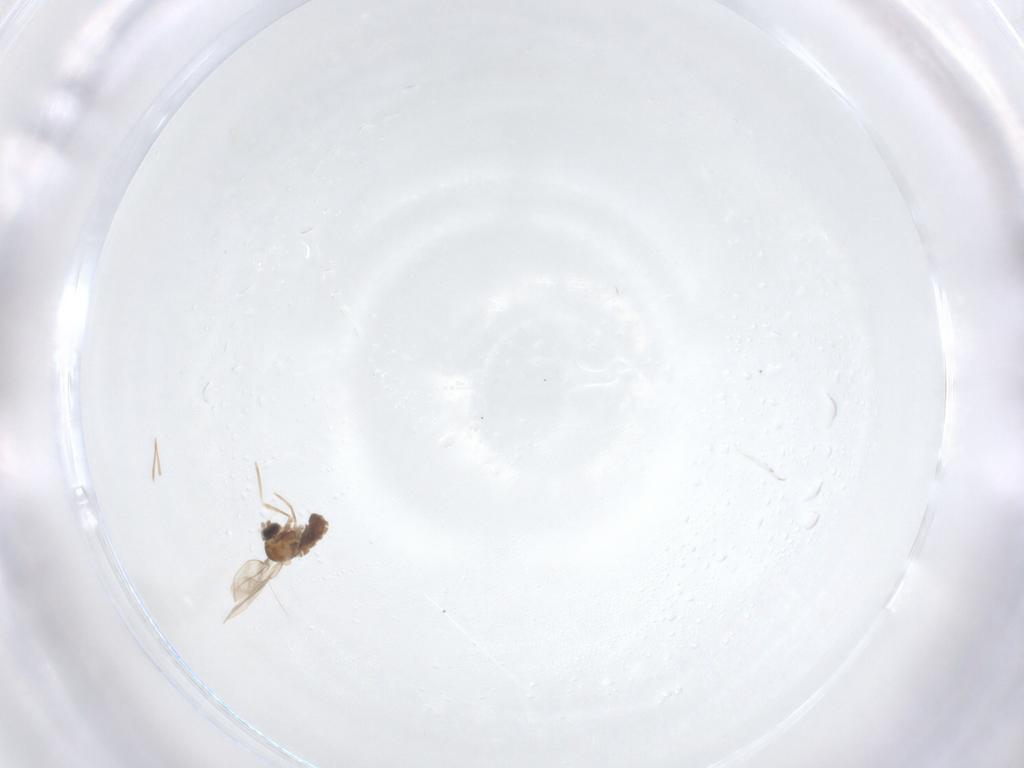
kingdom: Animalia
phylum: Arthropoda
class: Insecta
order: Diptera
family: Cecidomyiidae
